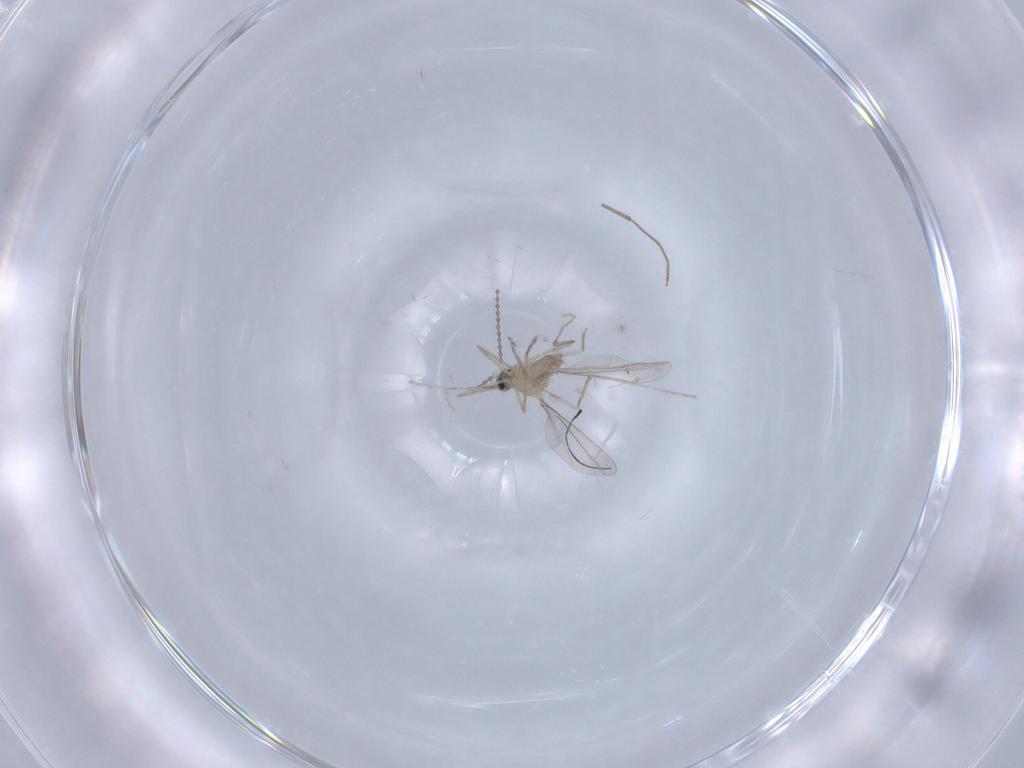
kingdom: Animalia
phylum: Arthropoda
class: Insecta
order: Diptera
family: Cecidomyiidae
